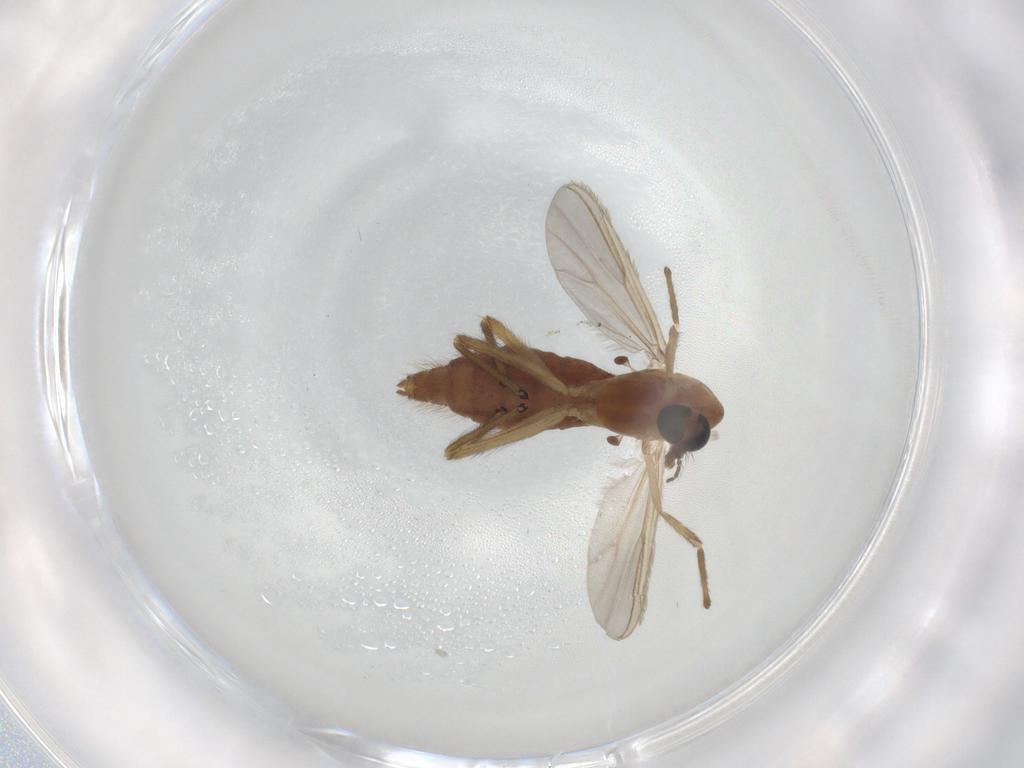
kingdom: Animalia
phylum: Arthropoda
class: Insecta
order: Diptera
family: Chironomidae
